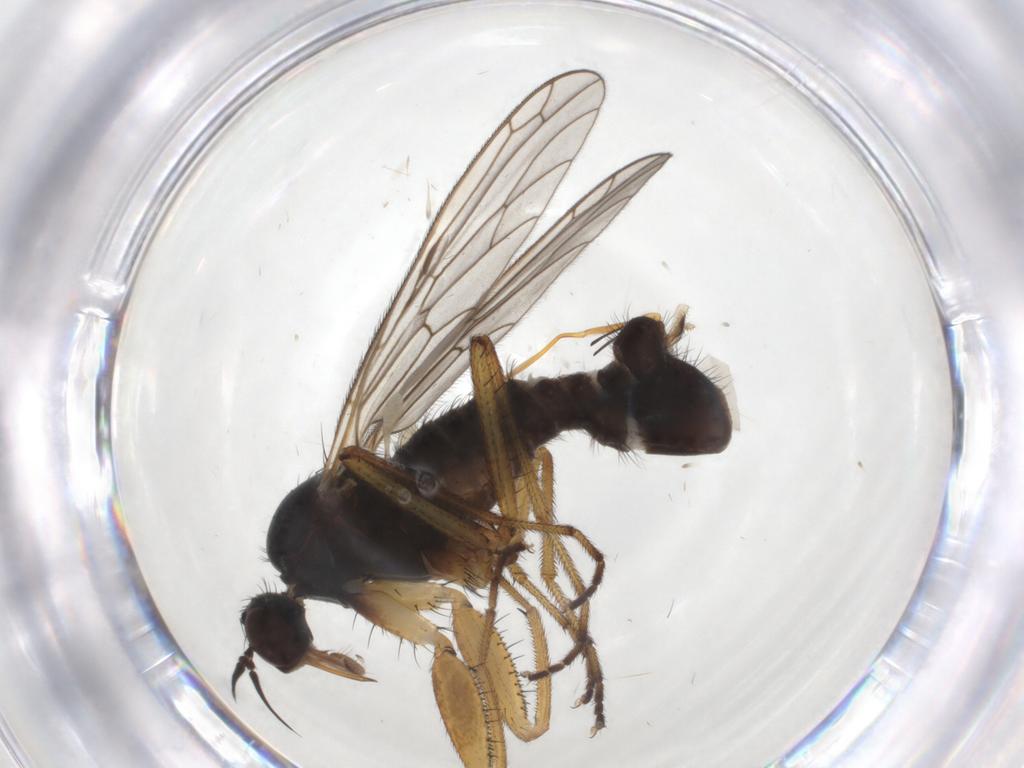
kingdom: Animalia
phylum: Arthropoda
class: Insecta
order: Diptera
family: Empididae
